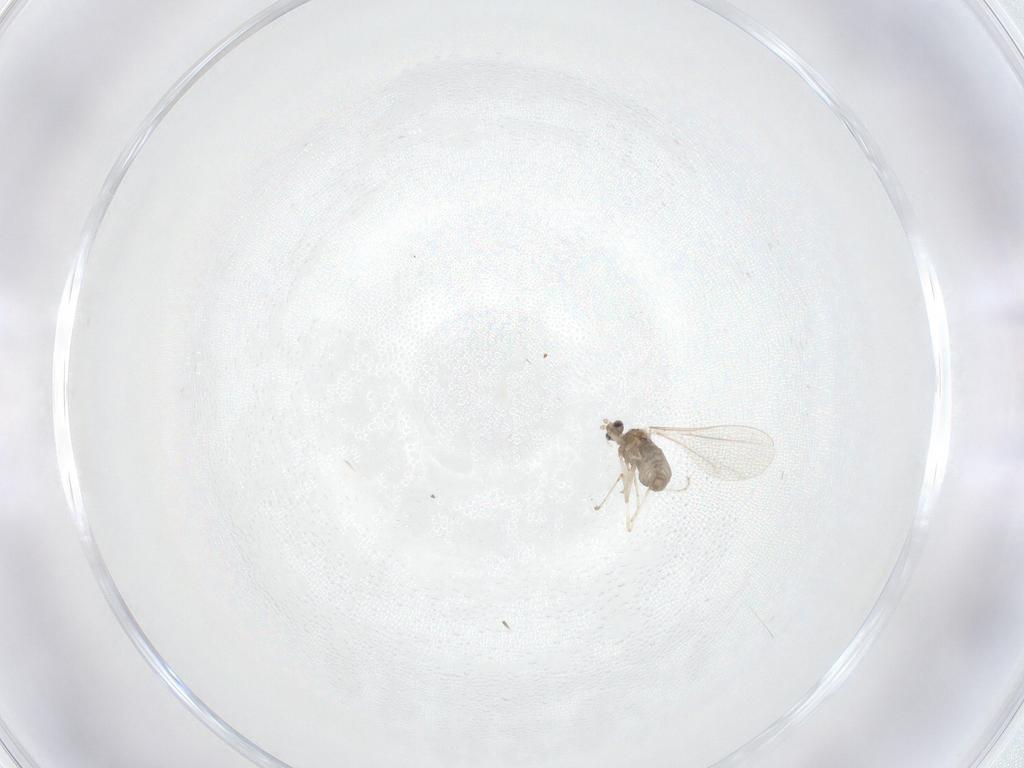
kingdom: Animalia
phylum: Arthropoda
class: Insecta
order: Diptera
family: Cecidomyiidae
